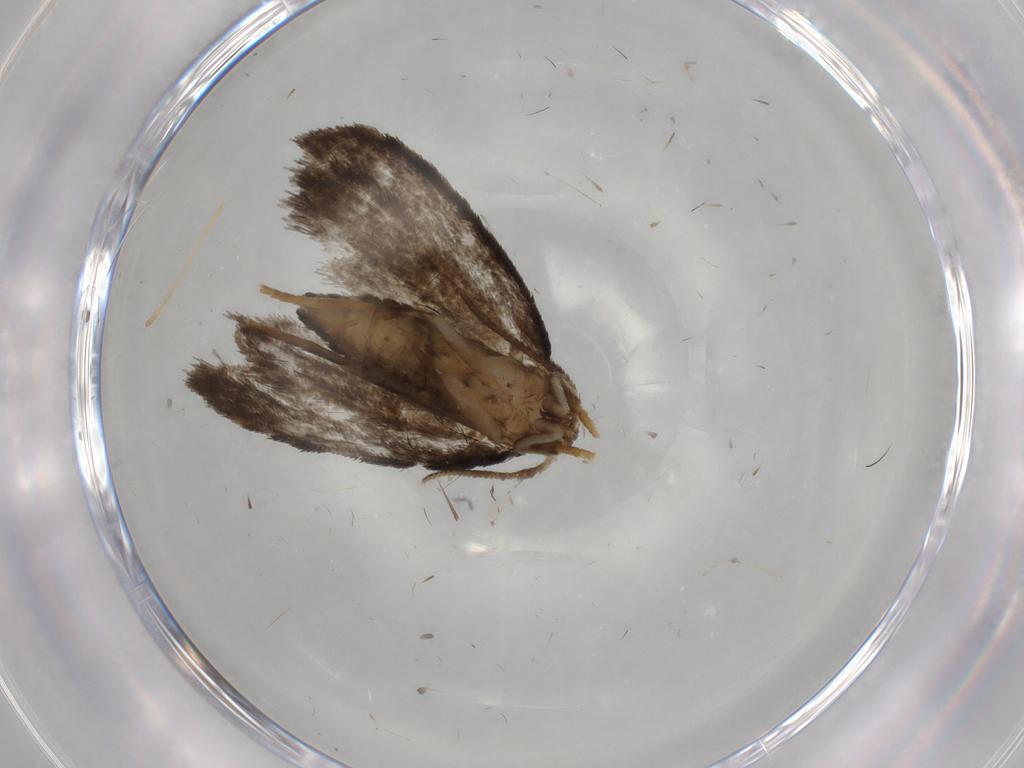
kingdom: Animalia
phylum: Arthropoda
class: Insecta
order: Lepidoptera
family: Psychidae
